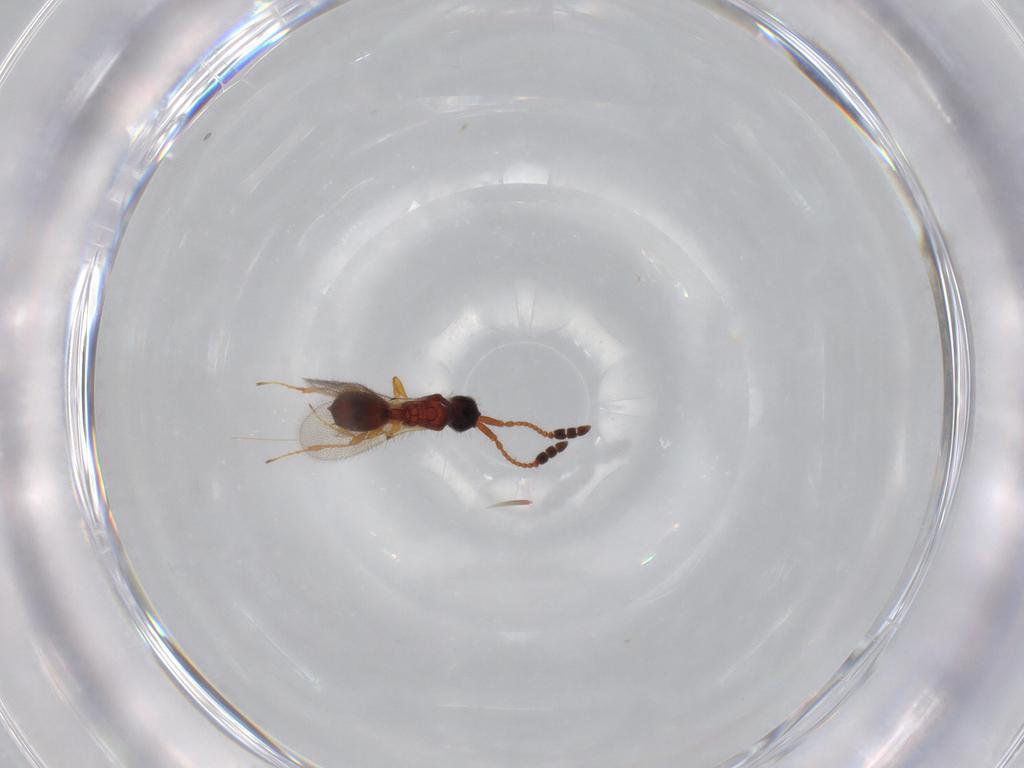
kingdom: Animalia
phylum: Arthropoda
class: Insecta
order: Hymenoptera
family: Diapriidae
